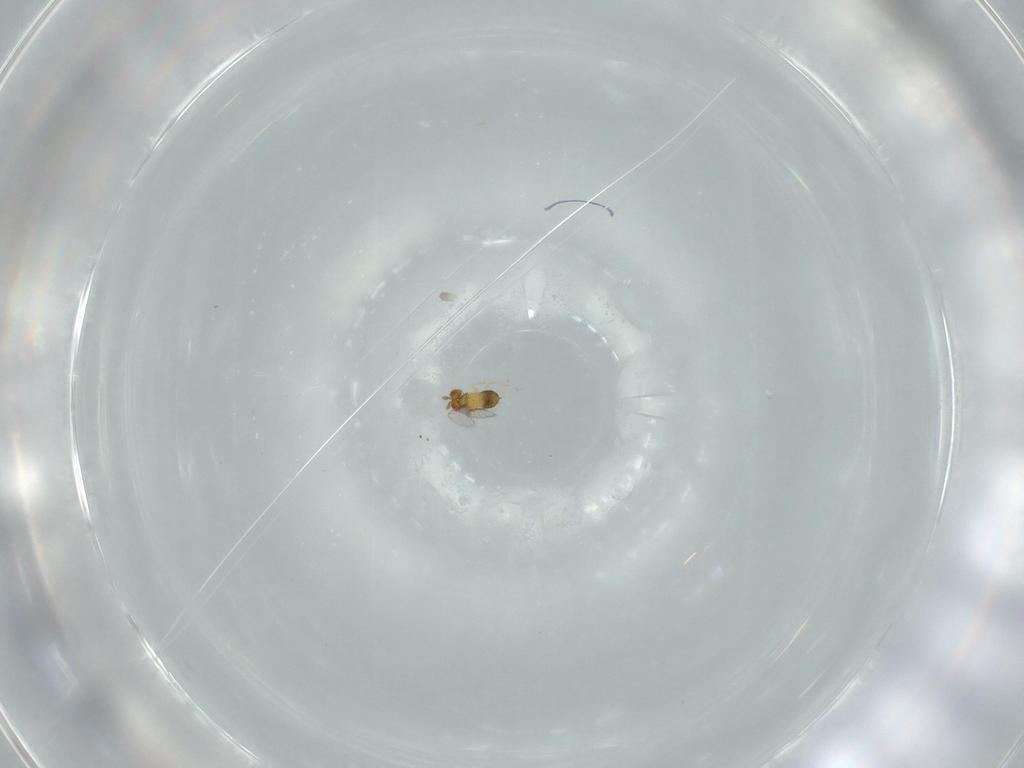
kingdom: Animalia
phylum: Arthropoda
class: Insecta
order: Hymenoptera
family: Trichogrammatidae
